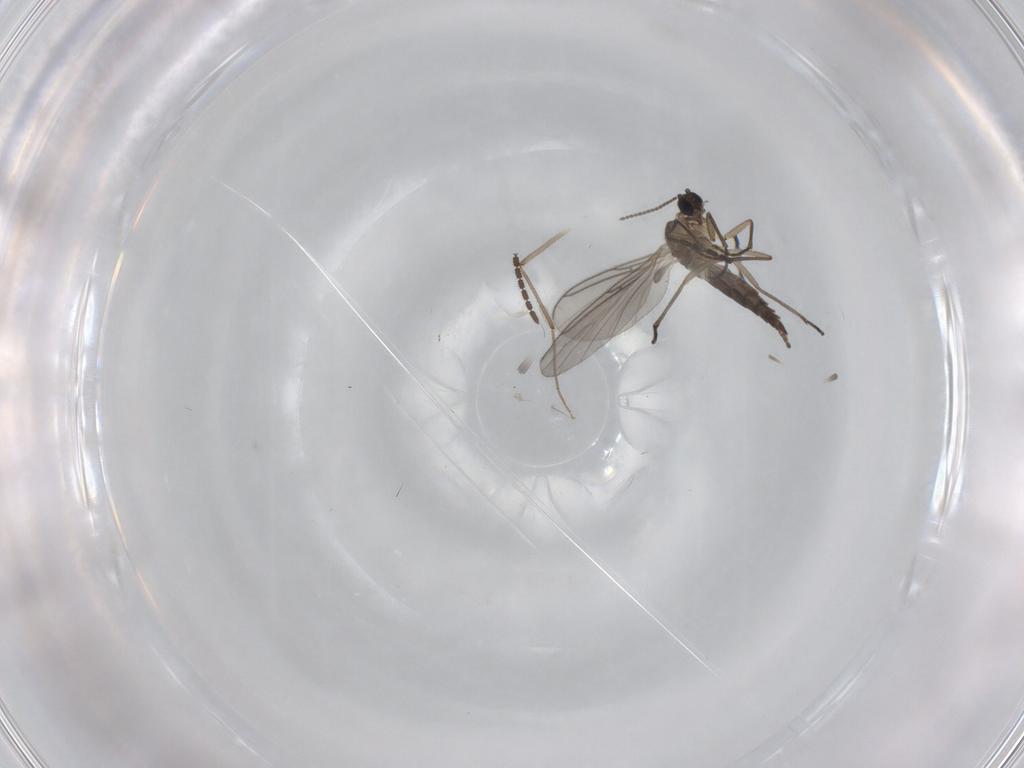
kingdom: Animalia
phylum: Arthropoda
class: Insecta
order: Diptera
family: Sciaridae
